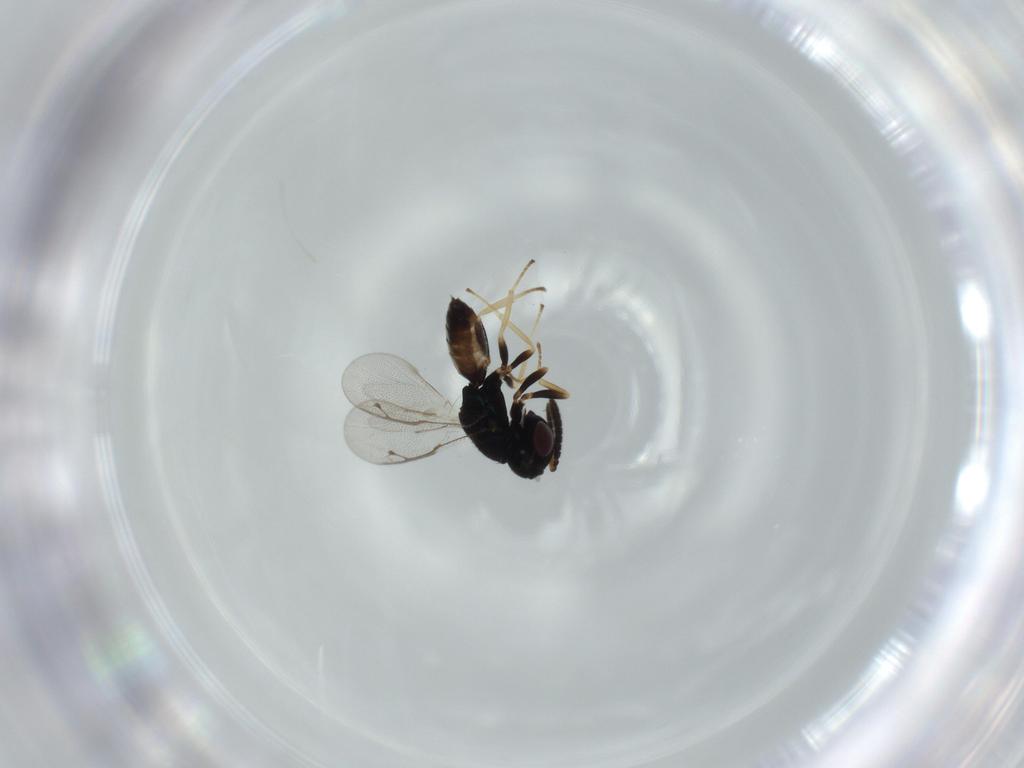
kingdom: Animalia
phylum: Arthropoda
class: Insecta
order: Hymenoptera
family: Pteromalidae
